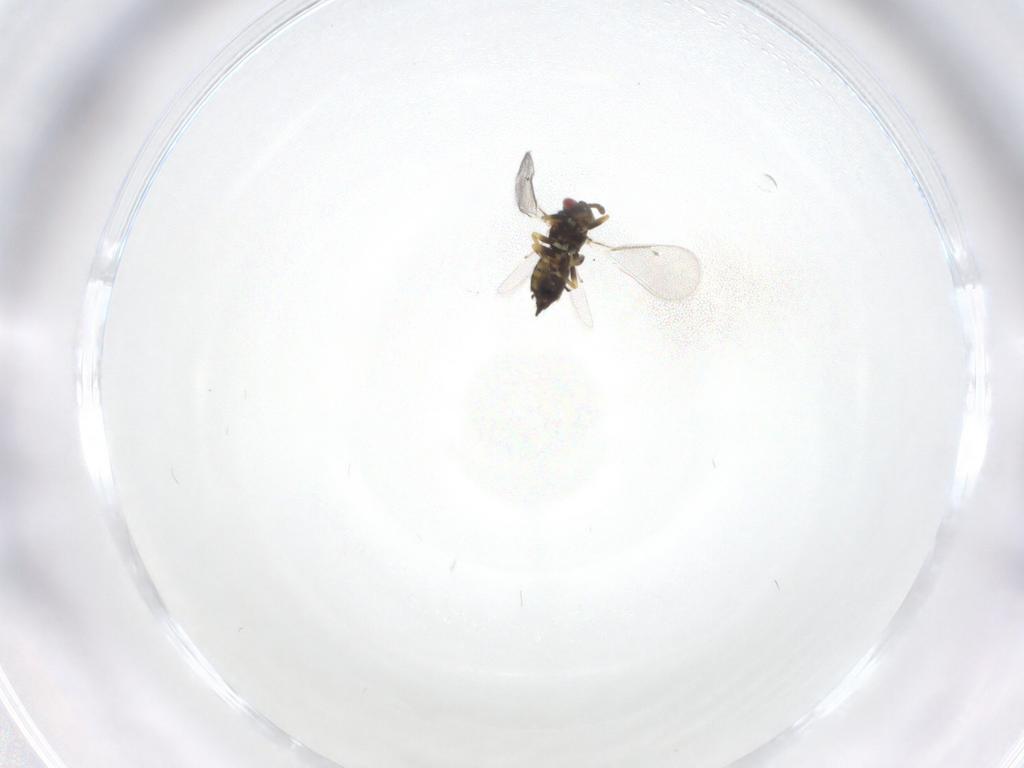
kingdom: Animalia
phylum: Arthropoda
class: Insecta
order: Hymenoptera
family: Eulophidae
